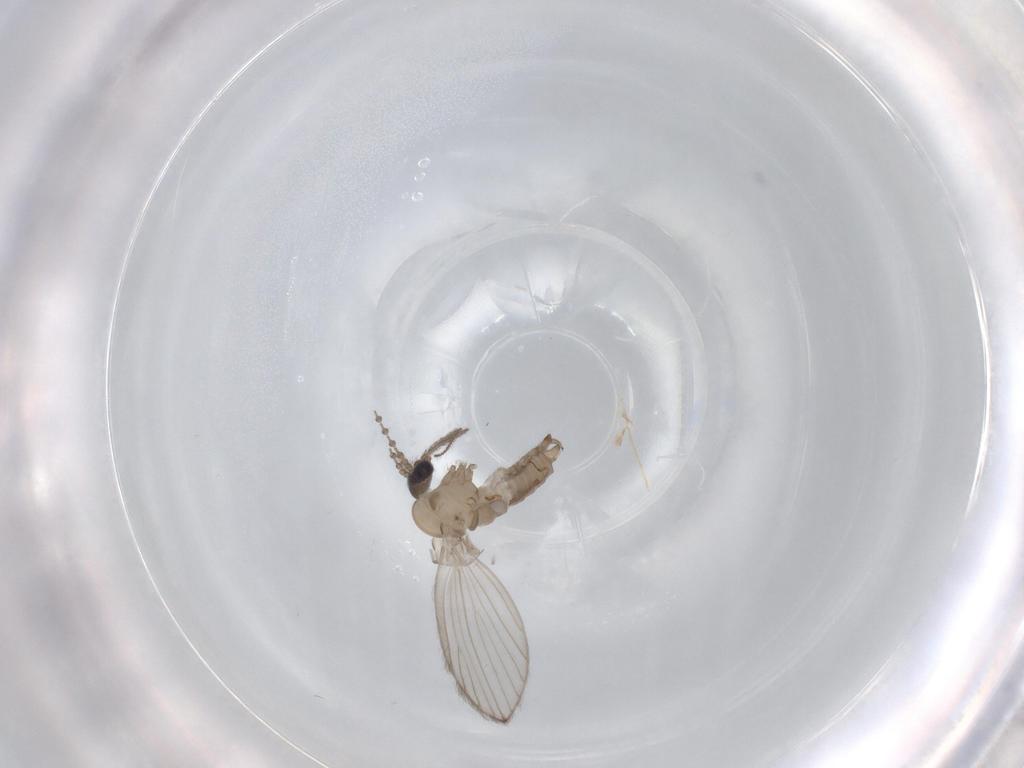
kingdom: Animalia
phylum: Arthropoda
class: Insecta
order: Diptera
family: Psychodidae
